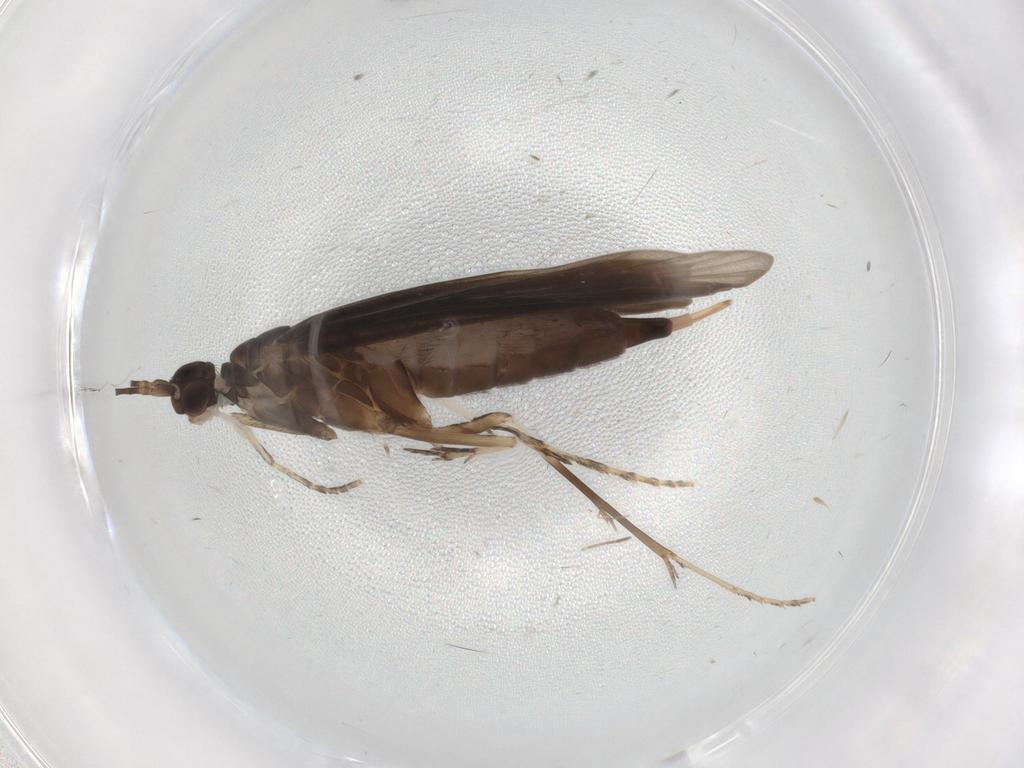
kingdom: Animalia
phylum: Arthropoda
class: Insecta
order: Trichoptera
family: Xiphocentronidae
